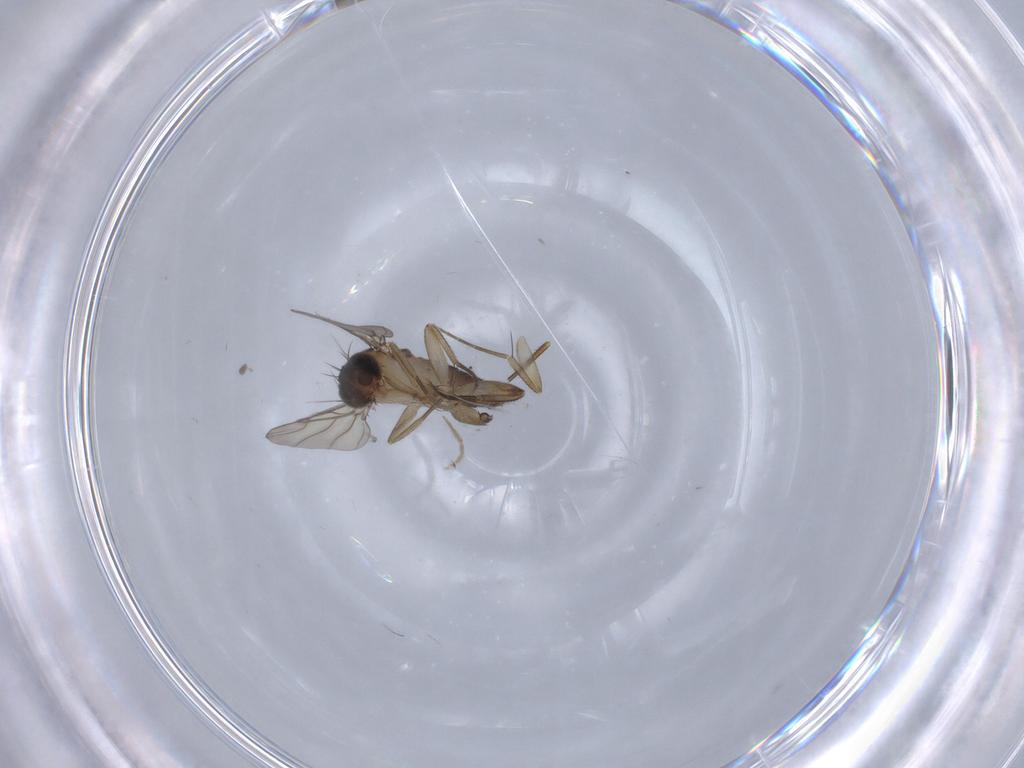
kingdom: Animalia
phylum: Arthropoda
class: Insecta
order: Diptera
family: Phoridae
